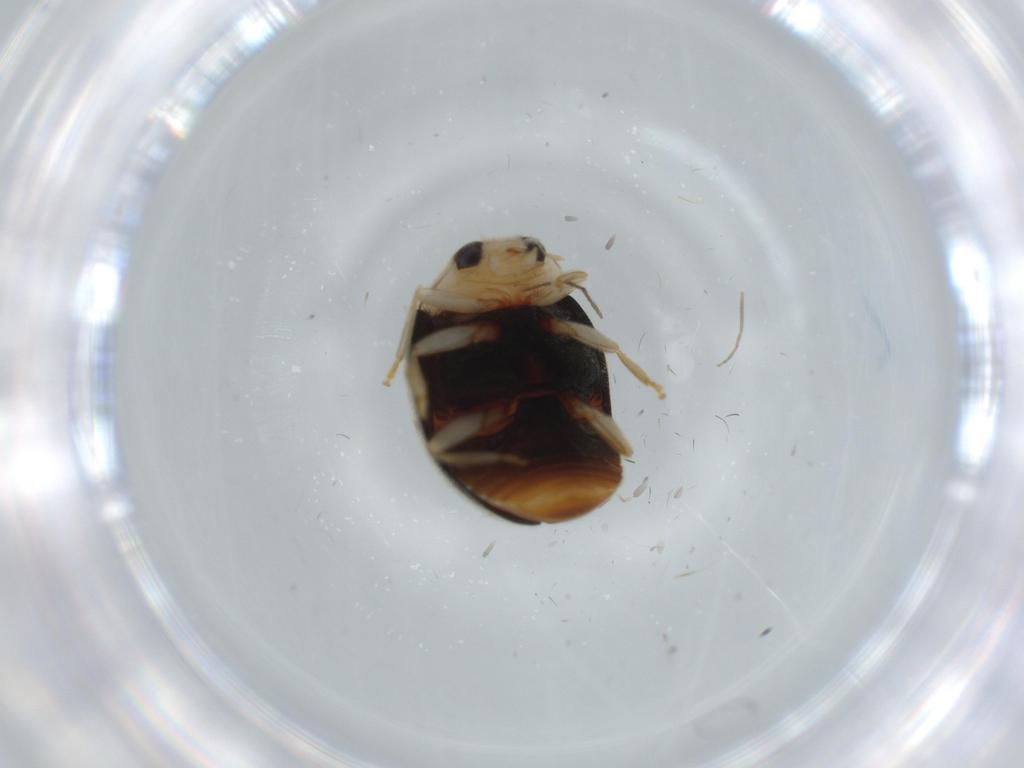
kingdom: Animalia
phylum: Arthropoda
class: Insecta
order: Coleoptera
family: Coccinellidae
